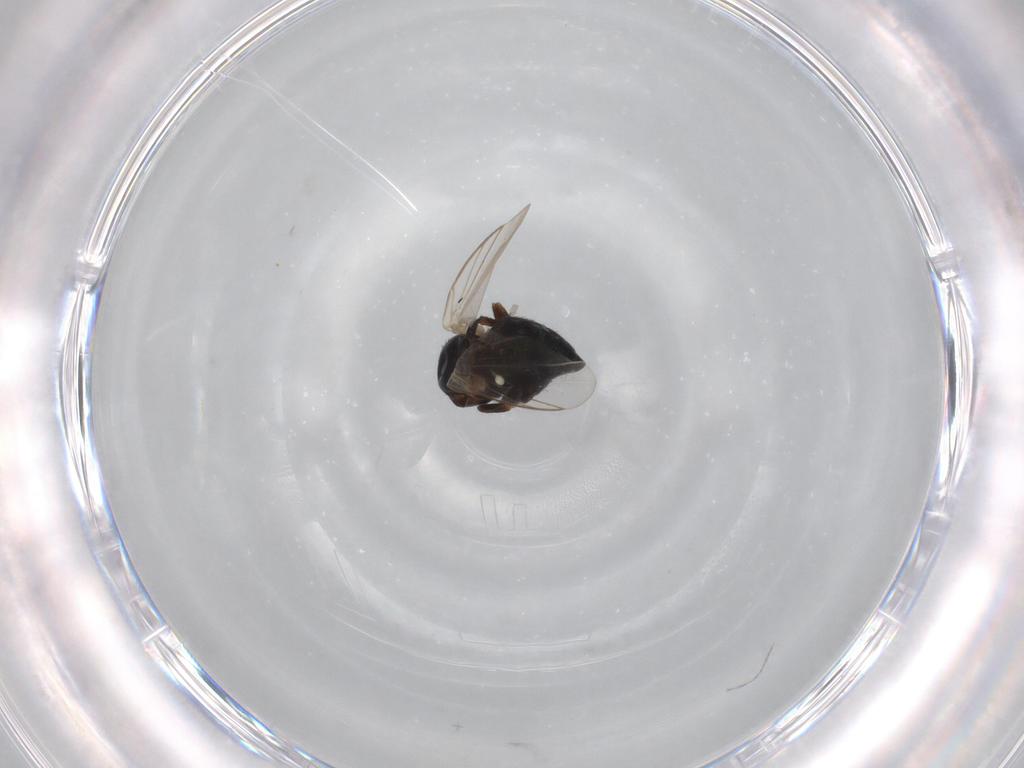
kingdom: Animalia
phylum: Arthropoda
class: Insecta
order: Diptera
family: Agromyzidae
